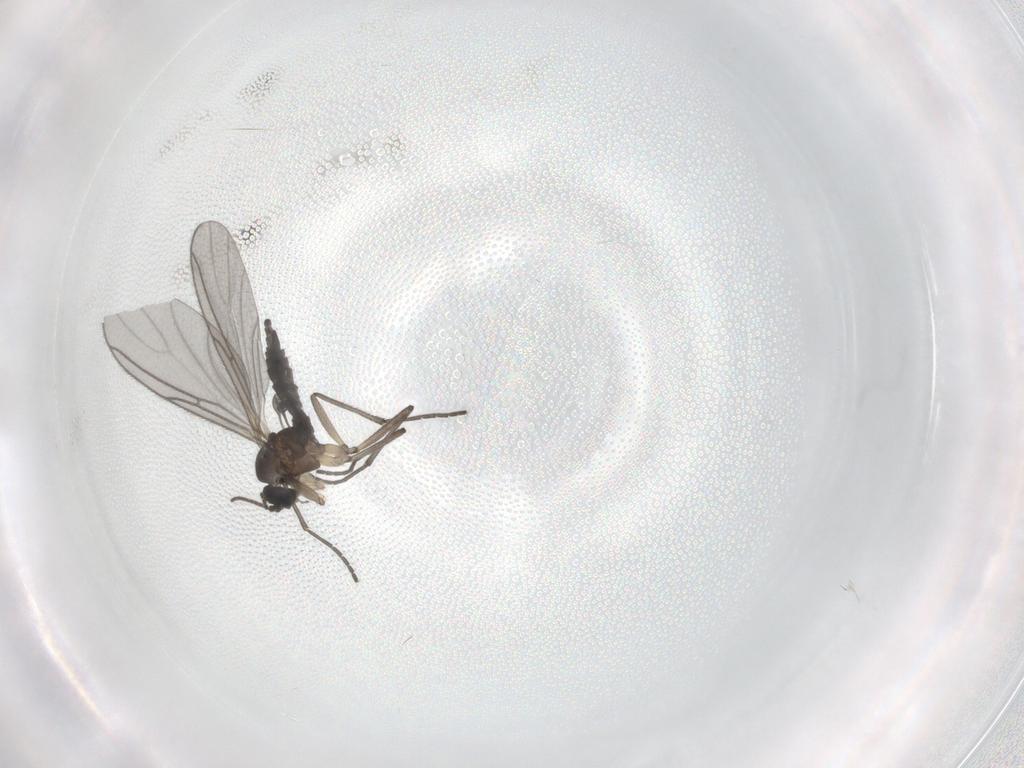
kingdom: Animalia
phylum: Arthropoda
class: Insecta
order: Diptera
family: Sciaridae
